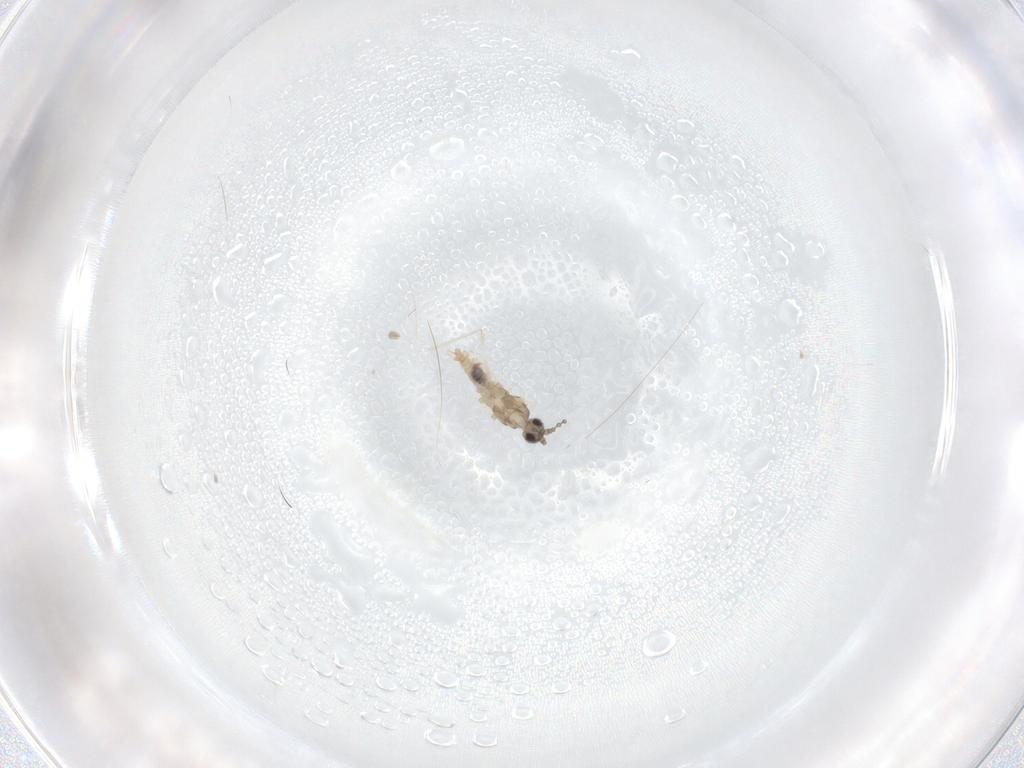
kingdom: Animalia
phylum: Arthropoda
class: Insecta
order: Diptera
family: Cecidomyiidae
